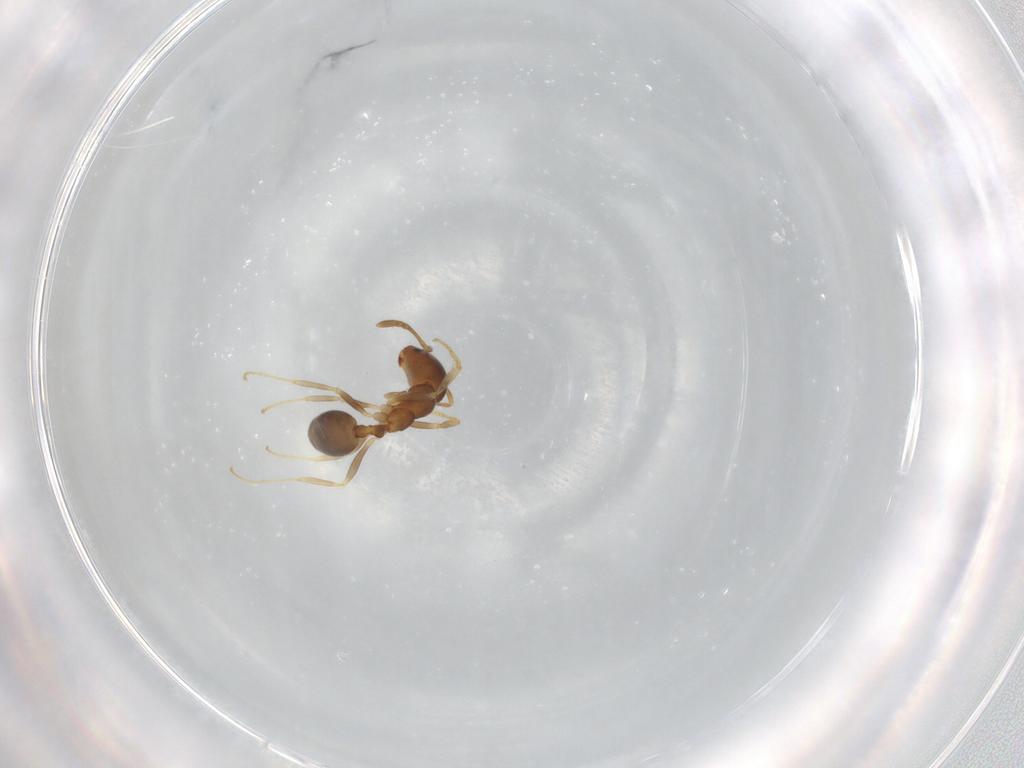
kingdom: Animalia
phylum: Arthropoda
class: Insecta
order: Hymenoptera
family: Formicidae
